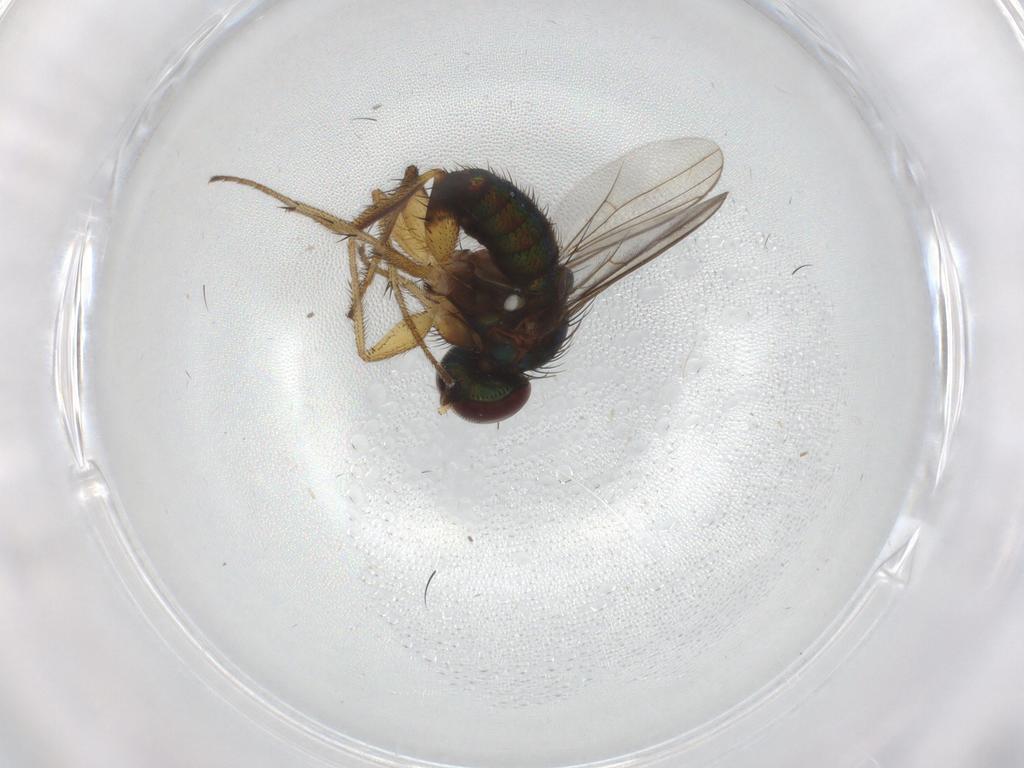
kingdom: Animalia
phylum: Arthropoda
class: Insecta
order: Diptera
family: Dolichopodidae
